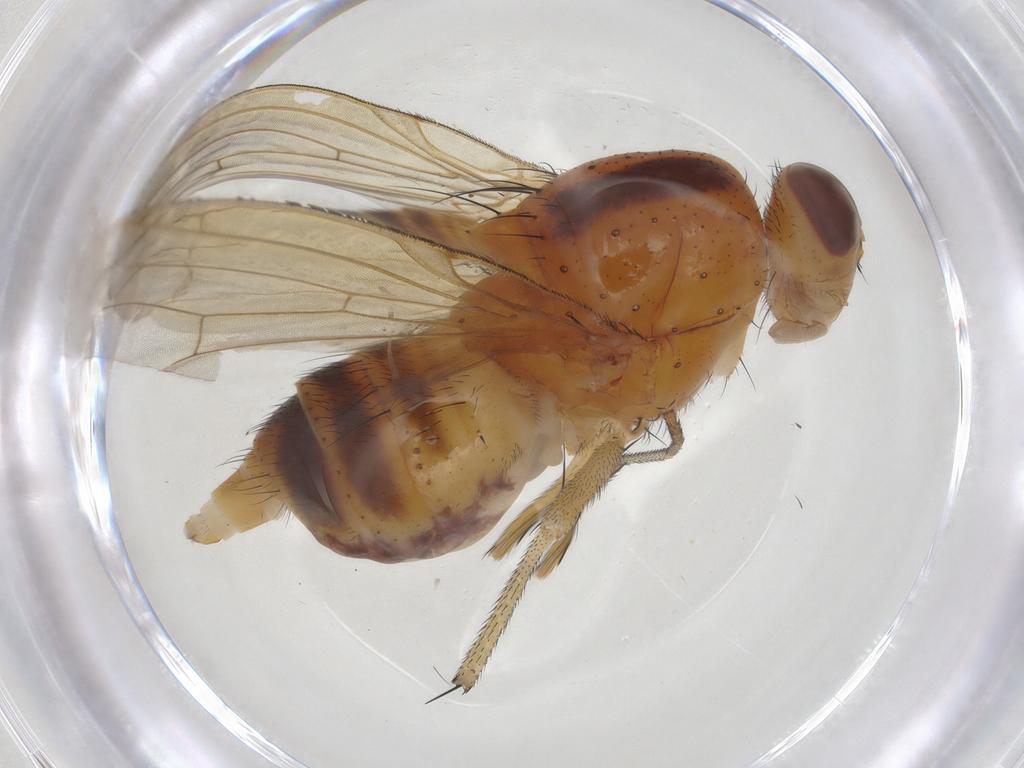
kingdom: Animalia
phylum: Arthropoda
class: Insecta
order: Diptera
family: Lauxaniidae
